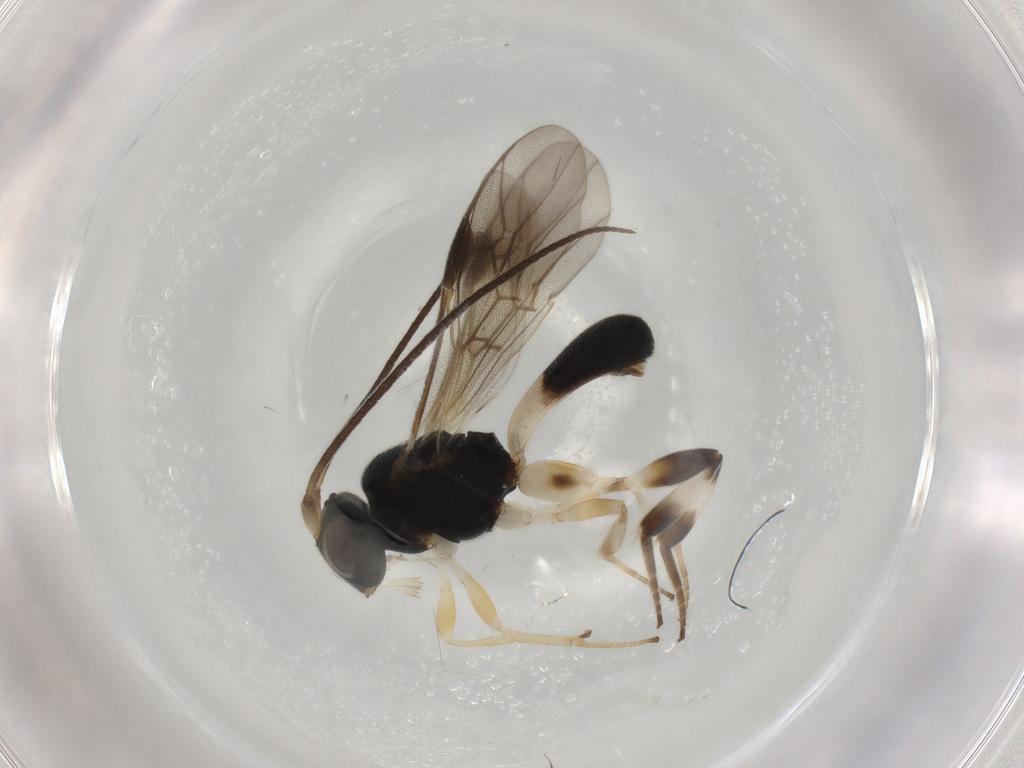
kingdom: Animalia
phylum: Arthropoda
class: Insecta
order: Hymenoptera
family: Braconidae
